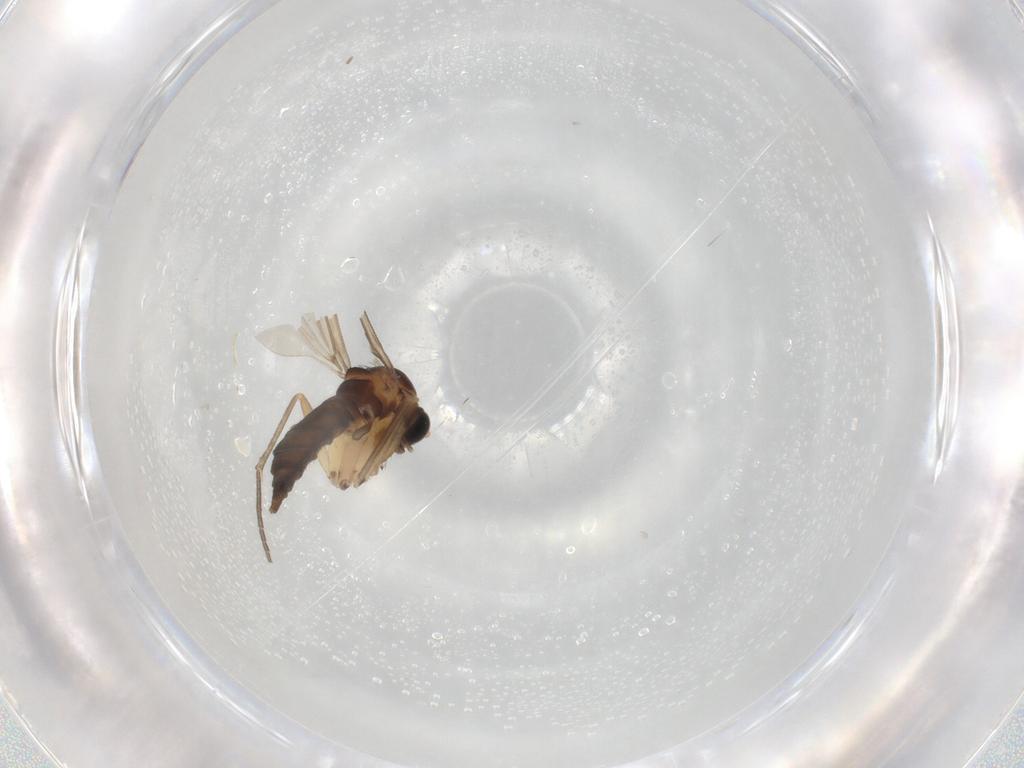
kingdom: Animalia
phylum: Arthropoda
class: Insecta
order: Diptera
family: Sciaridae
